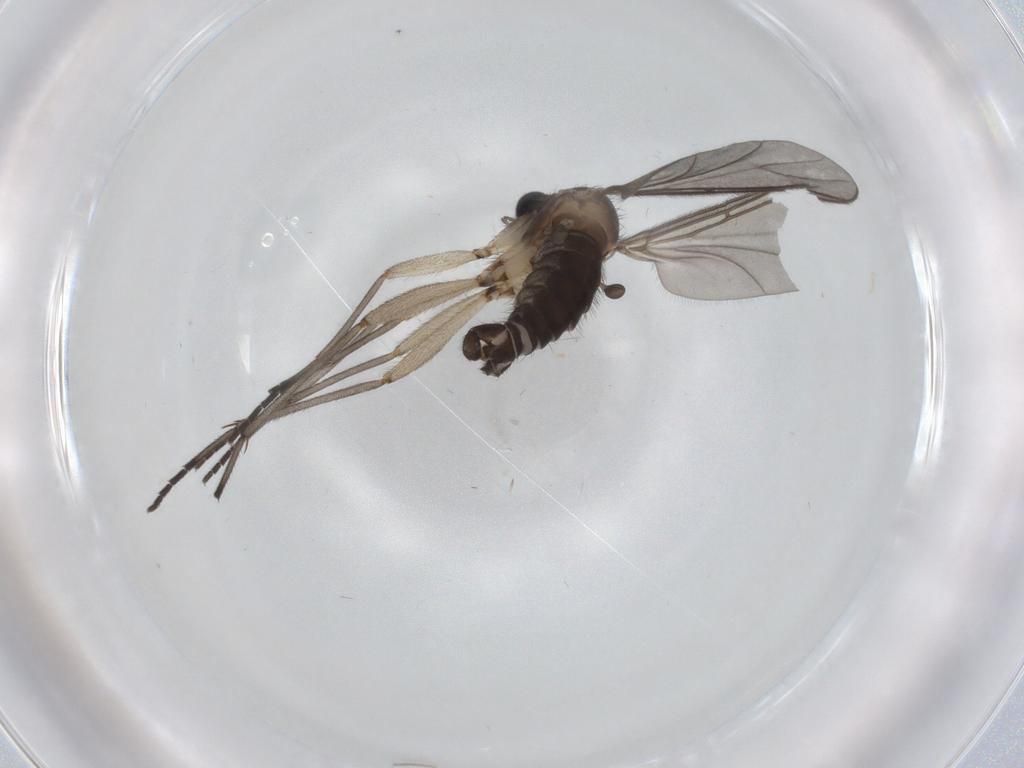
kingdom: Animalia
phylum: Arthropoda
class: Insecta
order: Diptera
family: Sciaridae
